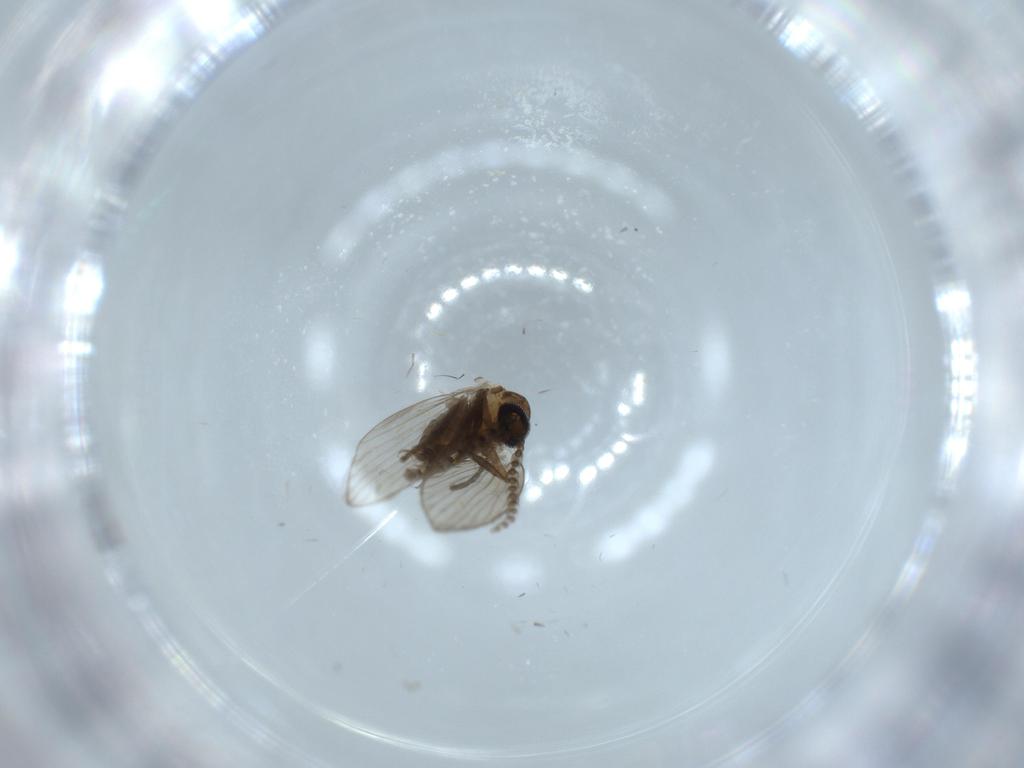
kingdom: Animalia
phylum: Arthropoda
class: Insecta
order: Diptera
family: Psychodidae
